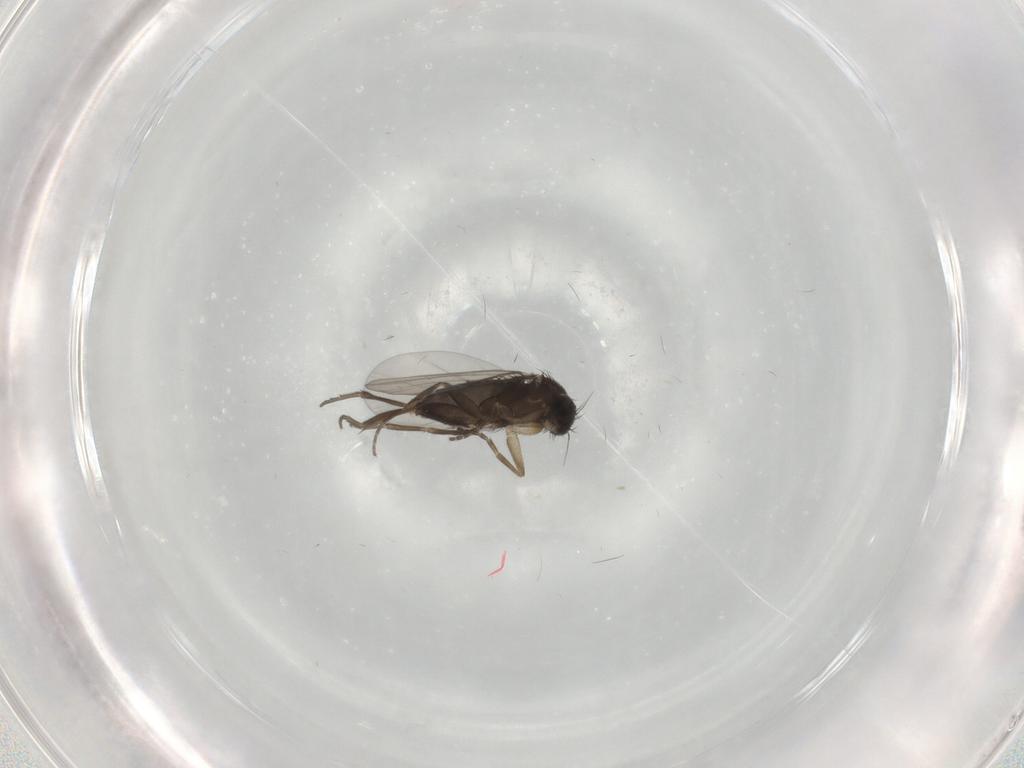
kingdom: Animalia
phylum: Arthropoda
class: Insecta
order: Diptera
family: Phoridae
